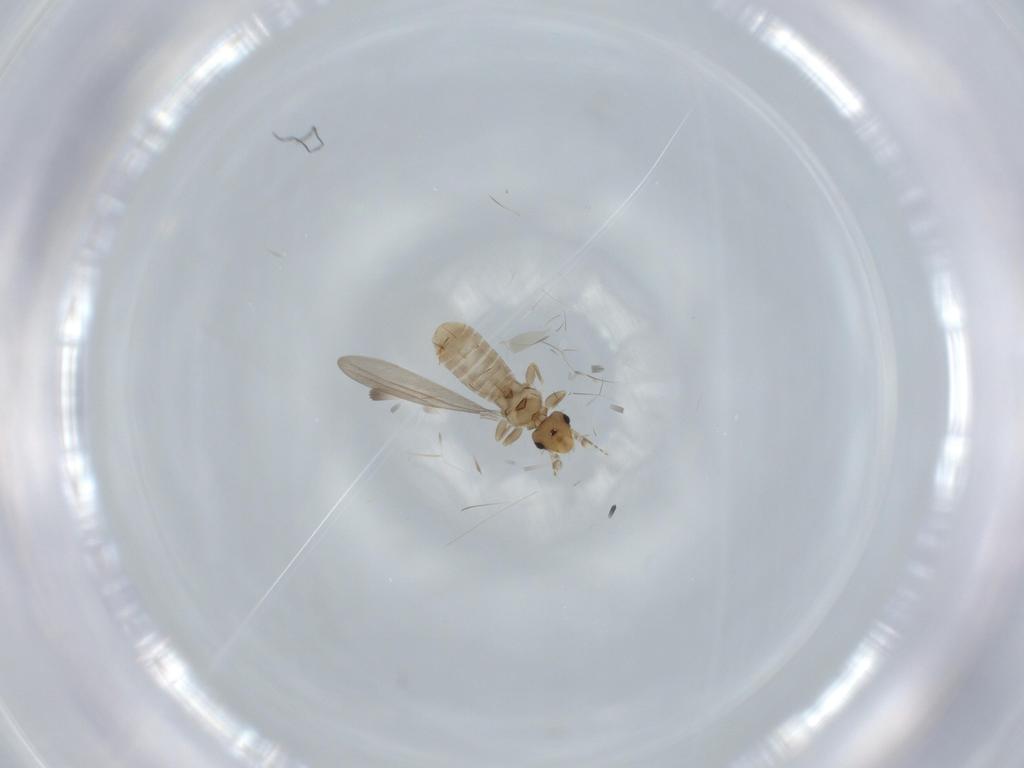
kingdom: Animalia
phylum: Arthropoda
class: Insecta
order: Psocodea
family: Liposcelididae
